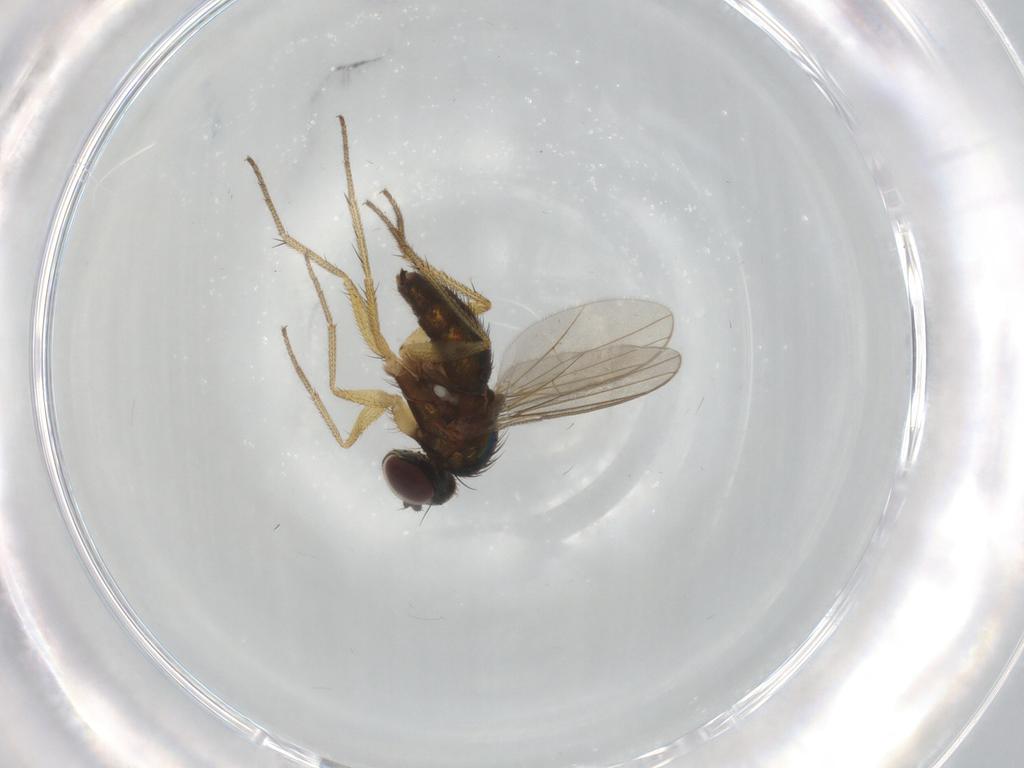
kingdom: Animalia
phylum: Arthropoda
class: Insecta
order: Diptera
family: Dolichopodidae
